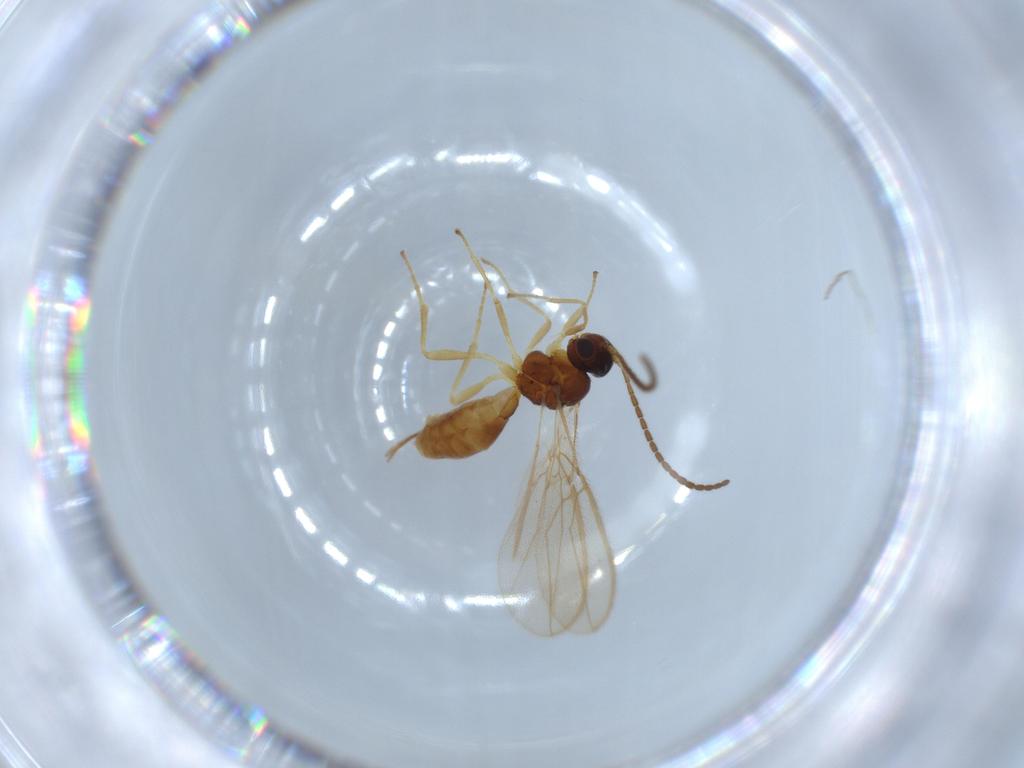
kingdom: Animalia
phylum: Arthropoda
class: Insecta
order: Hymenoptera
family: Braconidae
